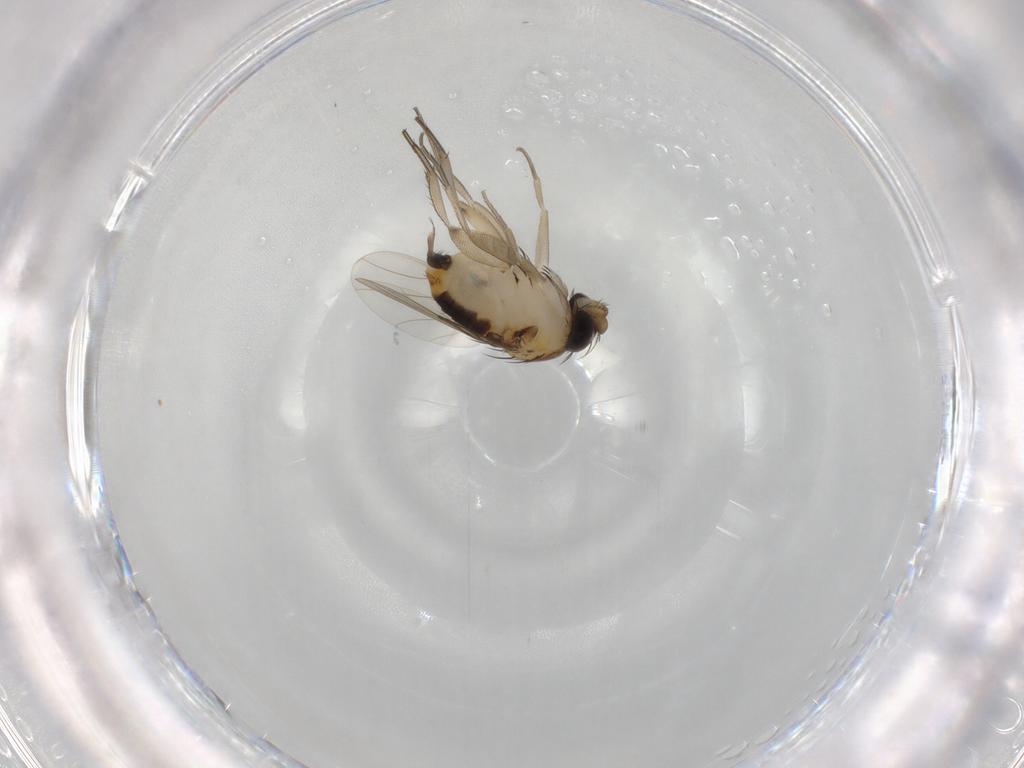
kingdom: Animalia
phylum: Arthropoda
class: Insecta
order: Diptera
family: Phoridae
